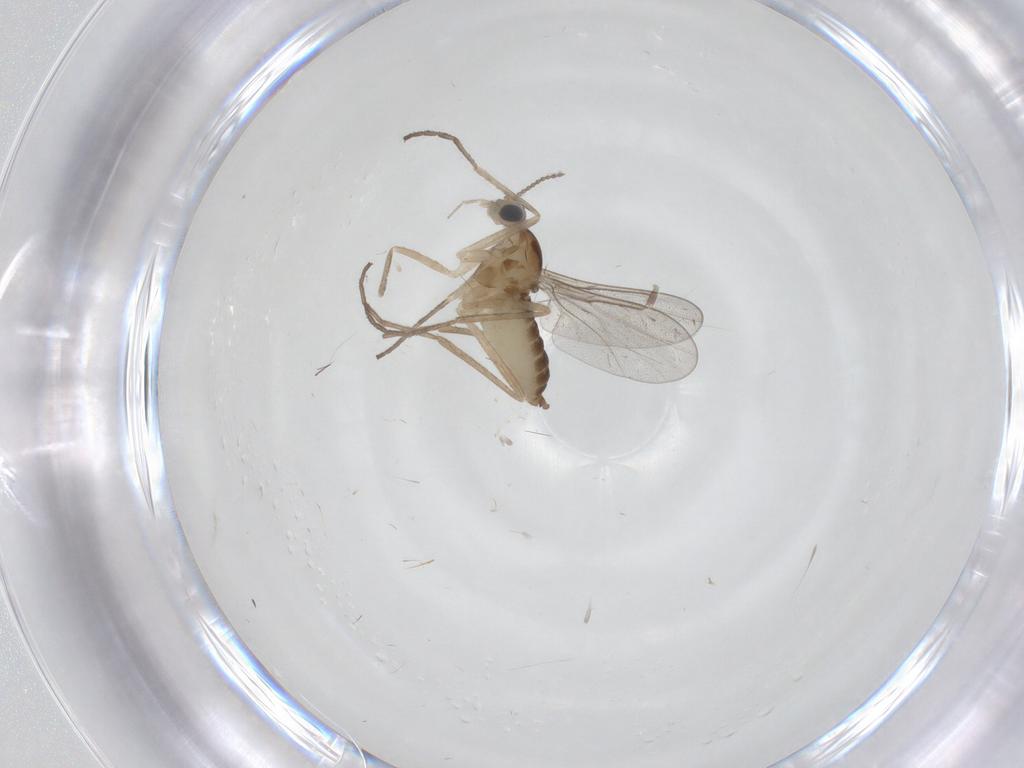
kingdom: Animalia
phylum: Arthropoda
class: Insecta
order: Diptera
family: Cecidomyiidae
